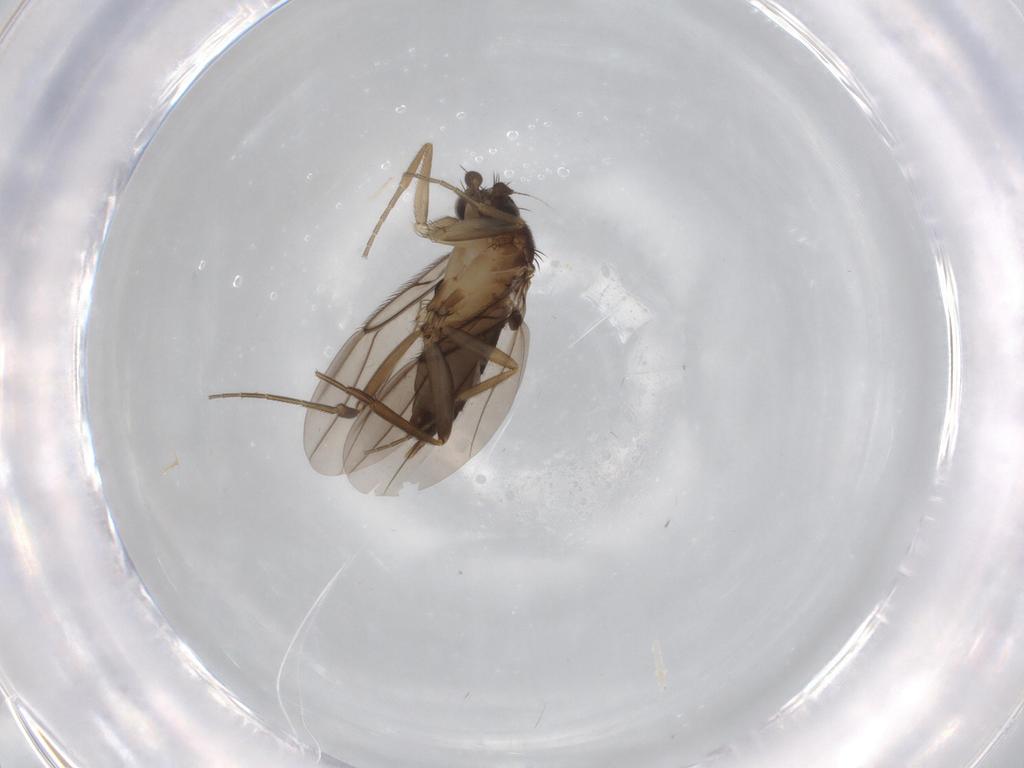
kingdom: Animalia
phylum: Arthropoda
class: Insecta
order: Diptera
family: Phoridae
